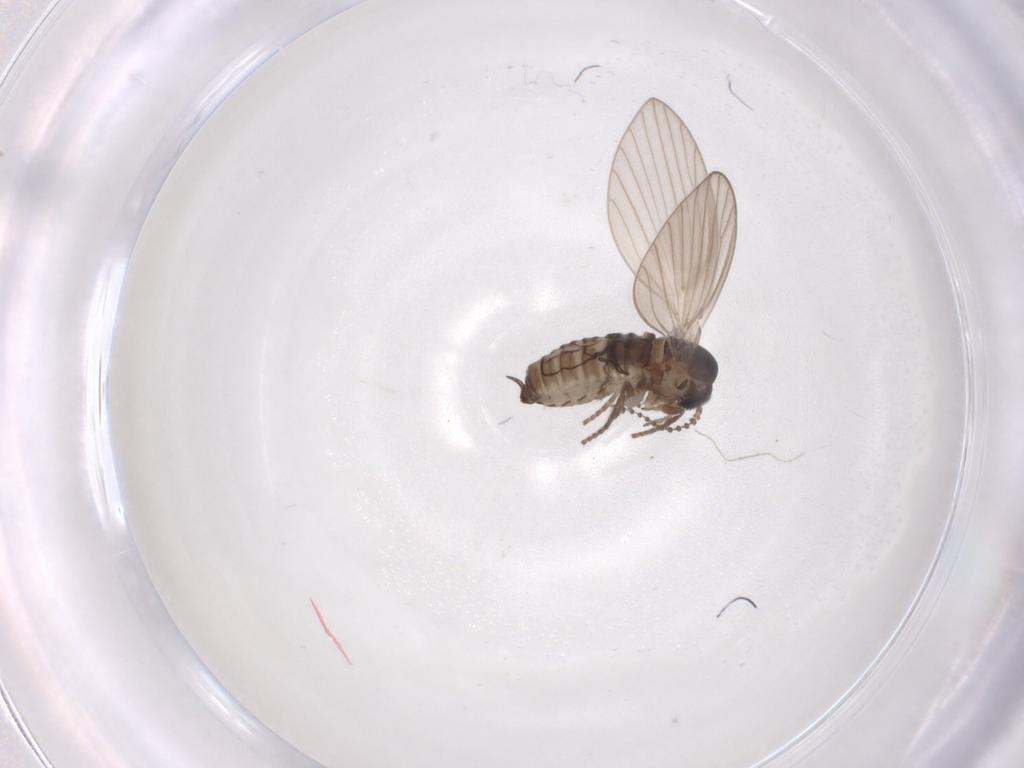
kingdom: Animalia
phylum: Arthropoda
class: Insecta
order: Diptera
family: Psychodidae
